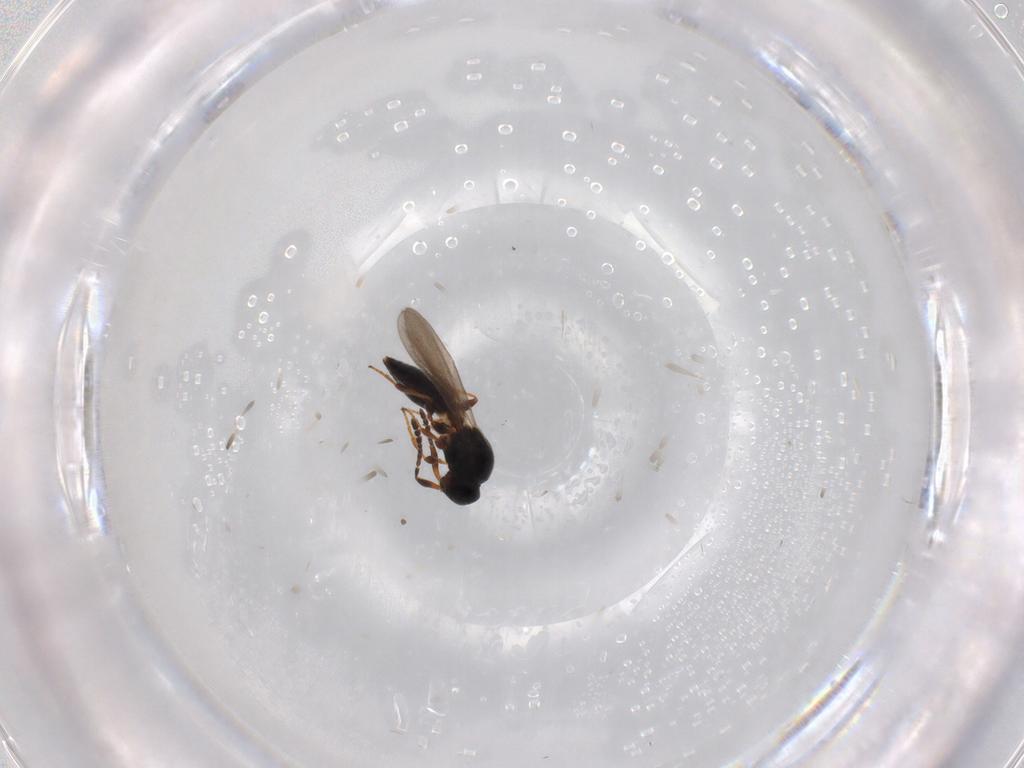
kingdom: Animalia
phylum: Arthropoda
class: Insecta
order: Hymenoptera
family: Platygastridae
